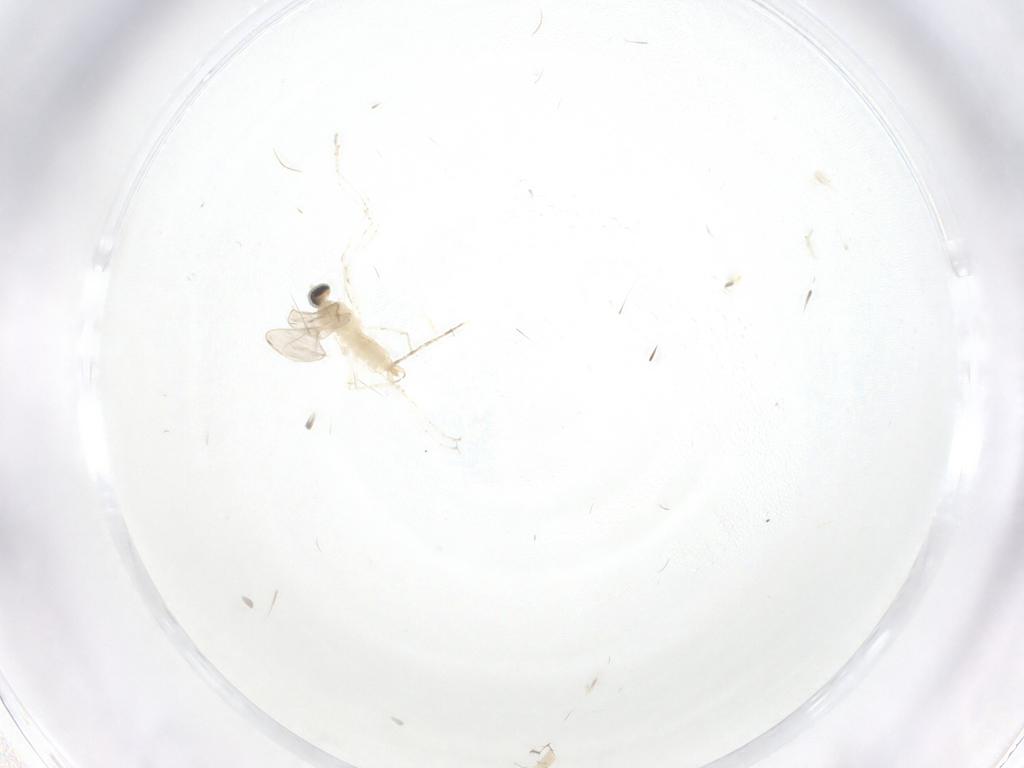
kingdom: Animalia
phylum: Arthropoda
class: Insecta
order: Diptera
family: Cecidomyiidae
